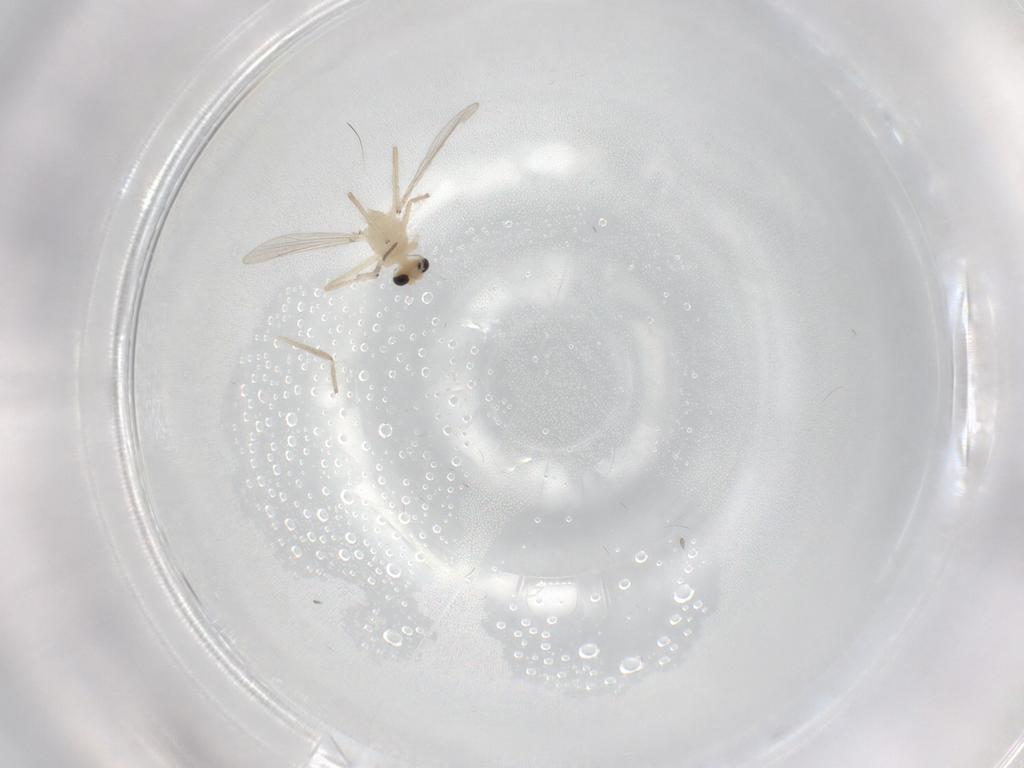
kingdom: Animalia
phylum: Arthropoda
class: Insecta
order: Diptera
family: Chironomidae
